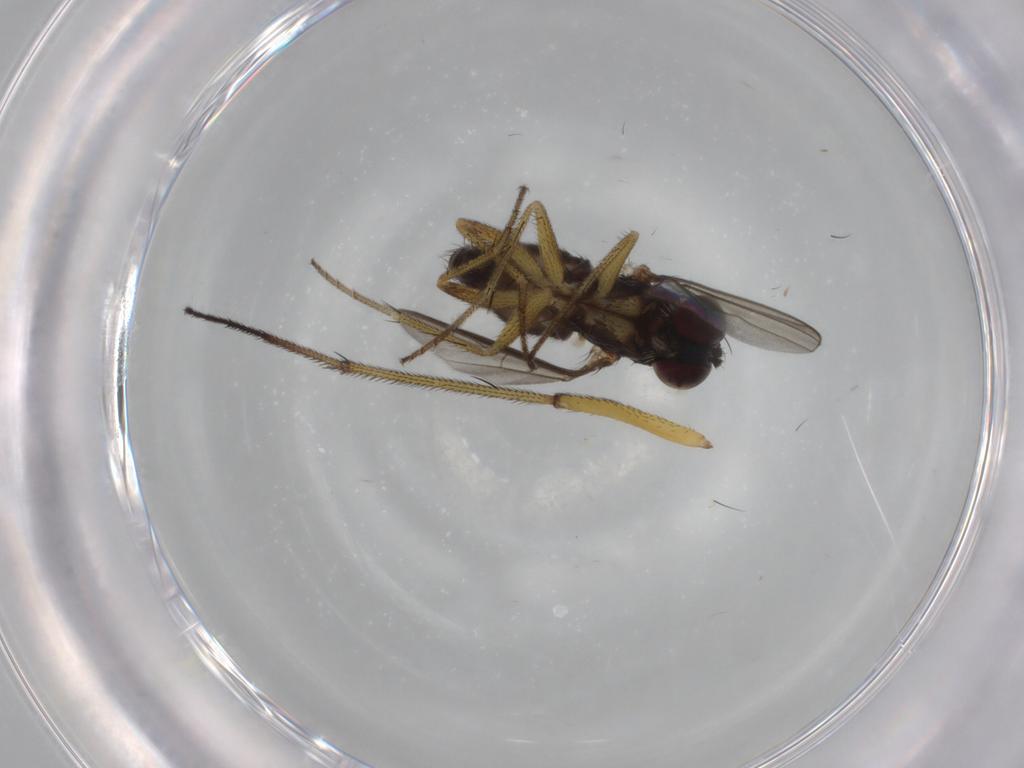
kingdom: Animalia
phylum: Arthropoda
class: Insecta
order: Diptera
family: Dolichopodidae
